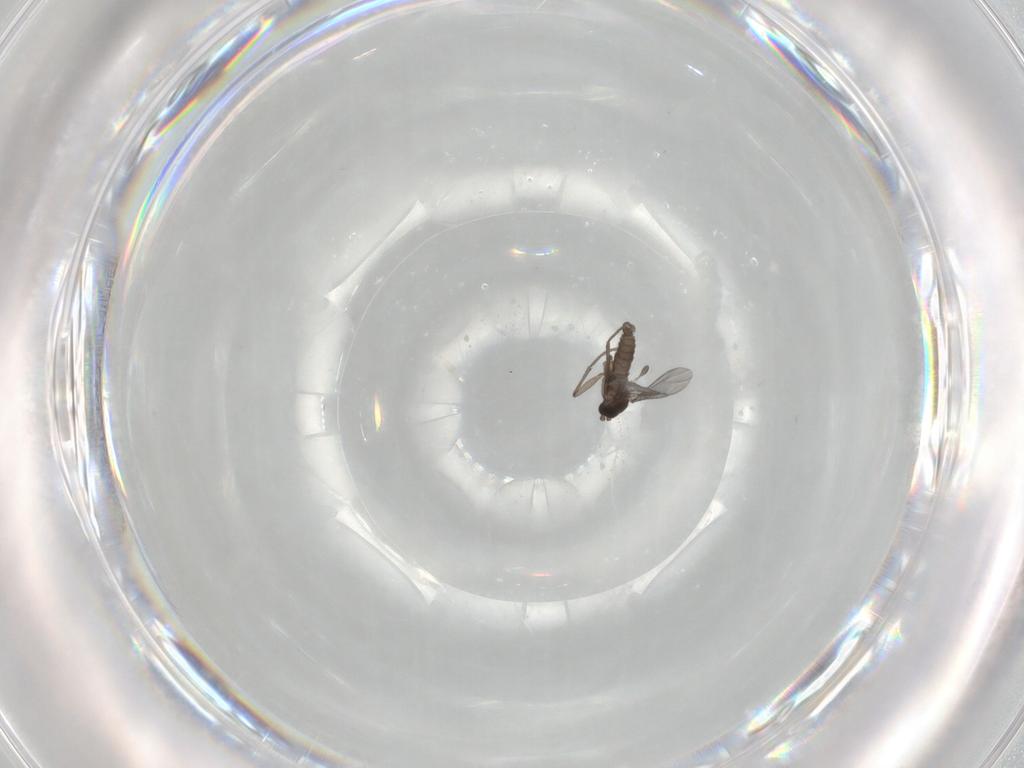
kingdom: Animalia
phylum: Arthropoda
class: Insecta
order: Diptera
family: Sciaridae
